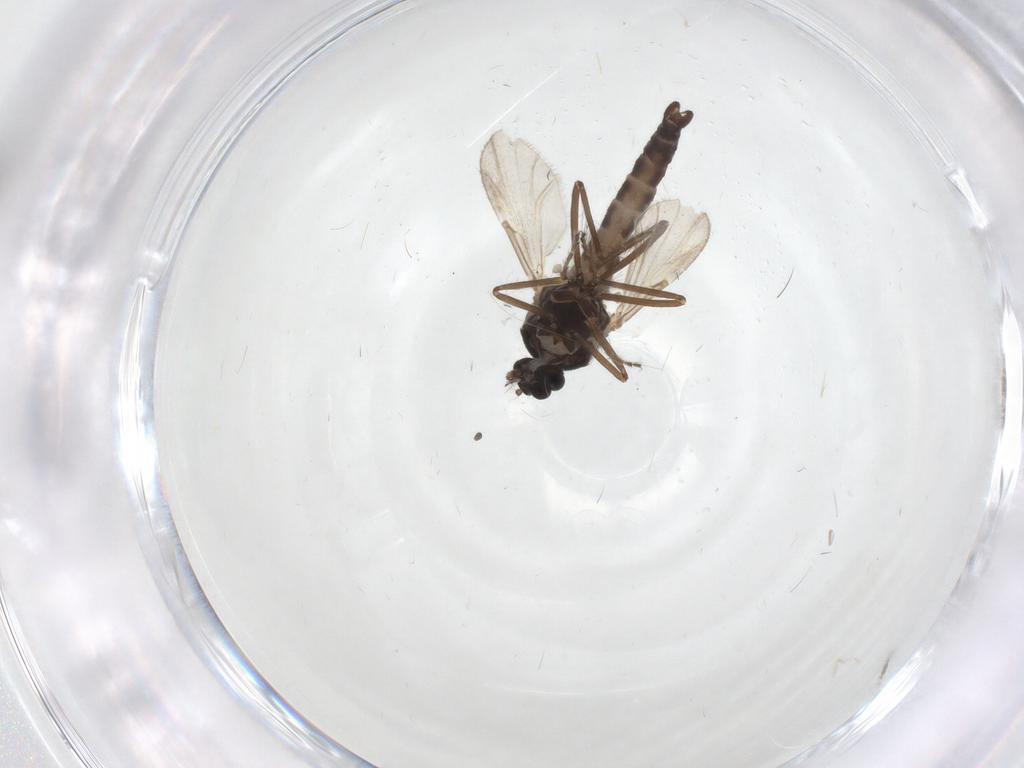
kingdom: Animalia
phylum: Arthropoda
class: Insecta
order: Diptera
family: Ceratopogonidae
